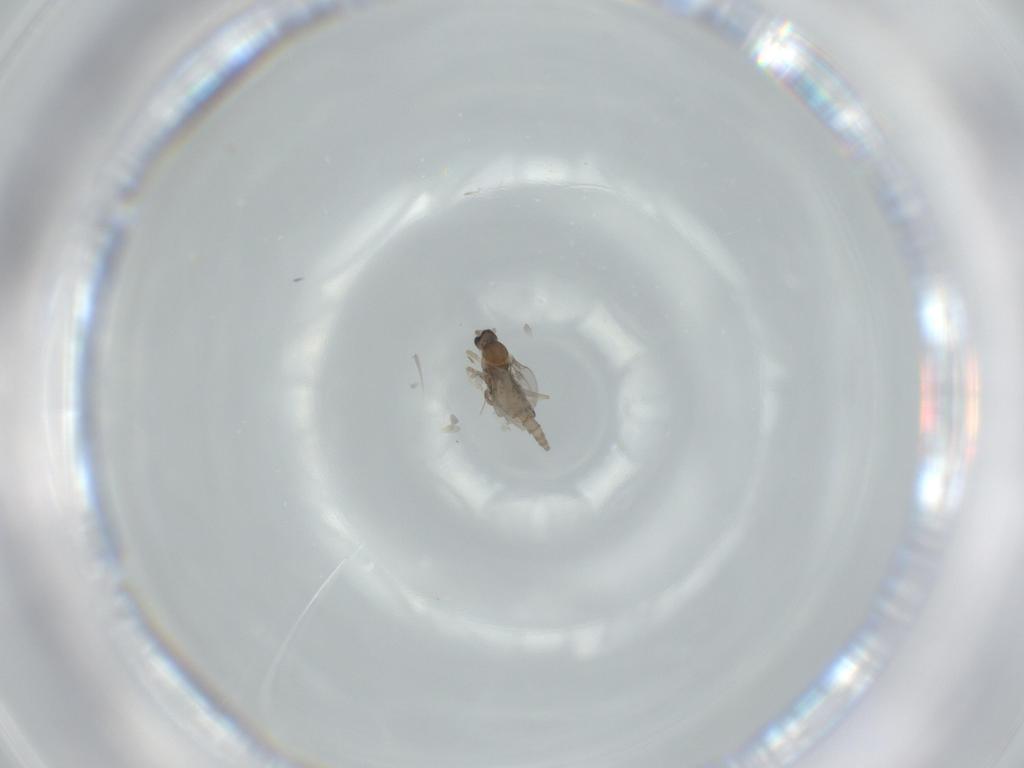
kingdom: Animalia
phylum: Arthropoda
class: Insecta
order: Diptera
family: Cecidomyiidae
